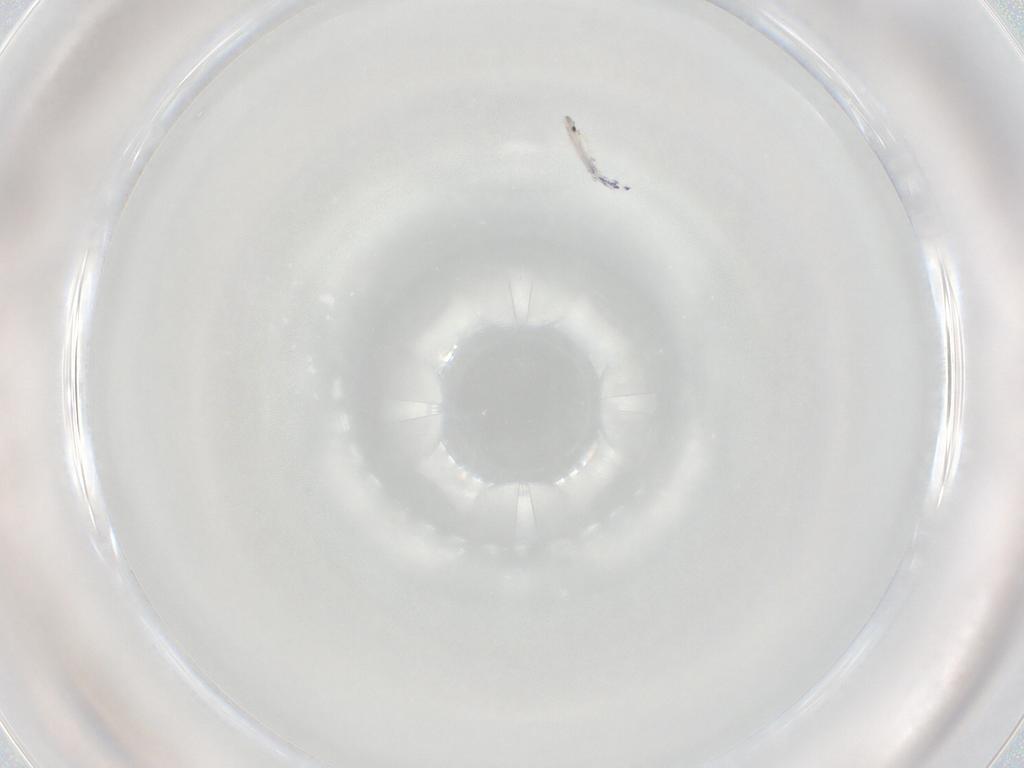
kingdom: Animalia
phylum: Arthropoda
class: Collembola
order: Entomobryomorpha
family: Entomobryidae
